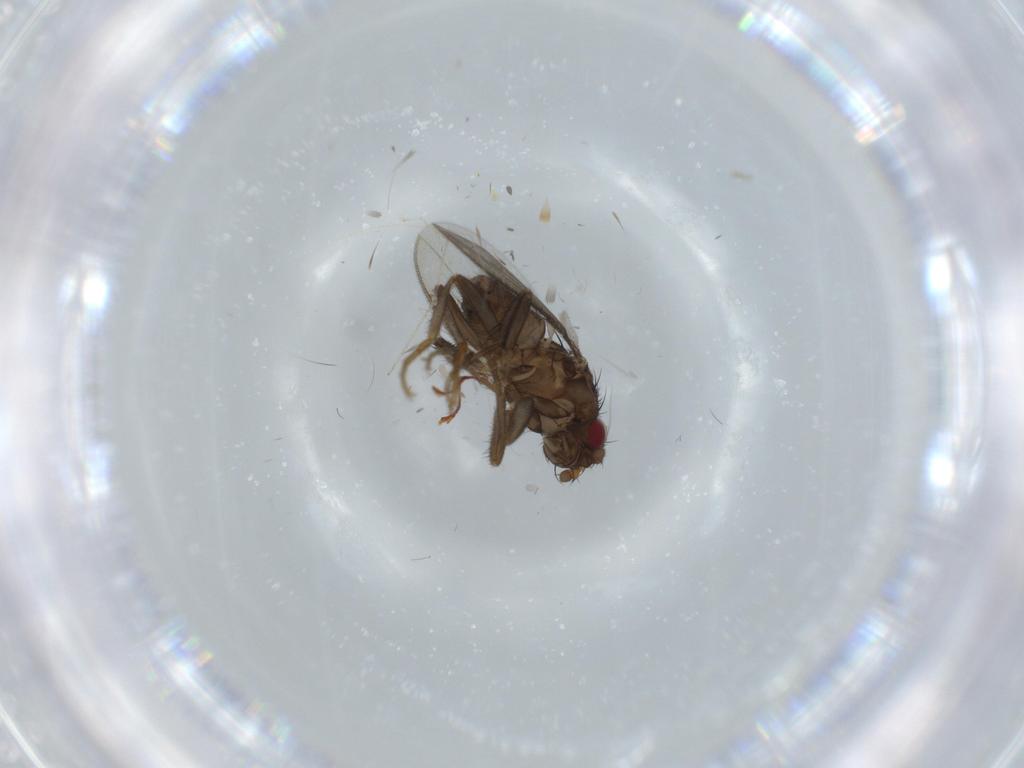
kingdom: Animalia
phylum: Arthropoda
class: Insecta
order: Diptera
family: Sphaeroceridae
